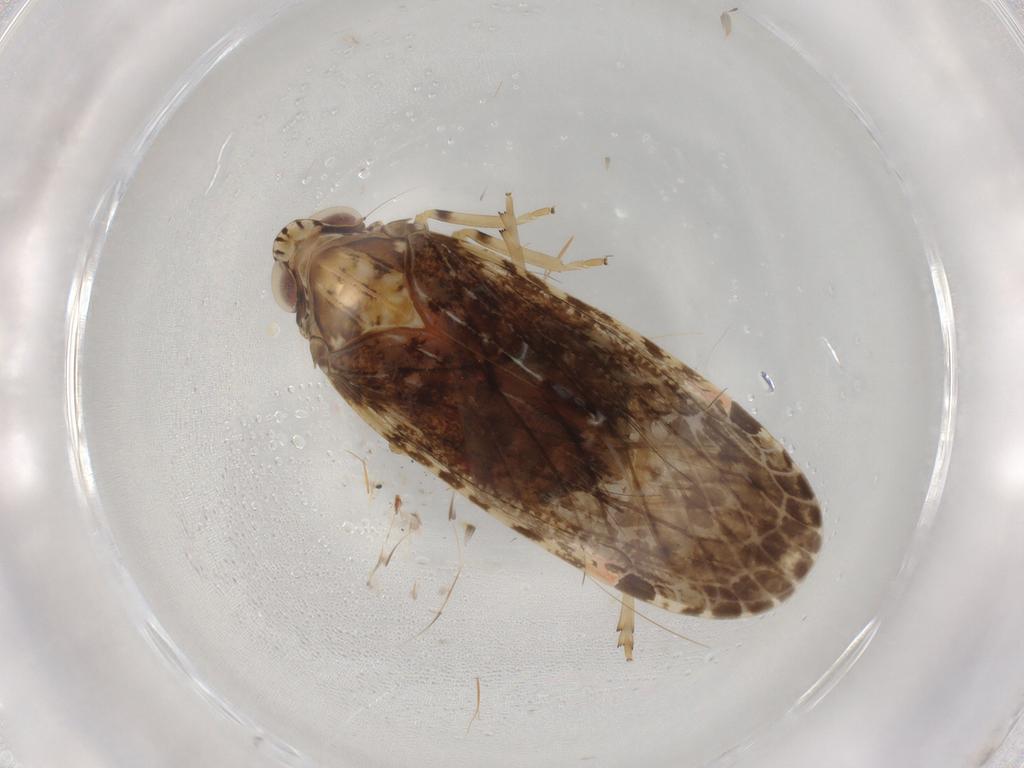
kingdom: Animalia
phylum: Arthropoda
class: Insecta
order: Hemiptera
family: Cicadellidae
